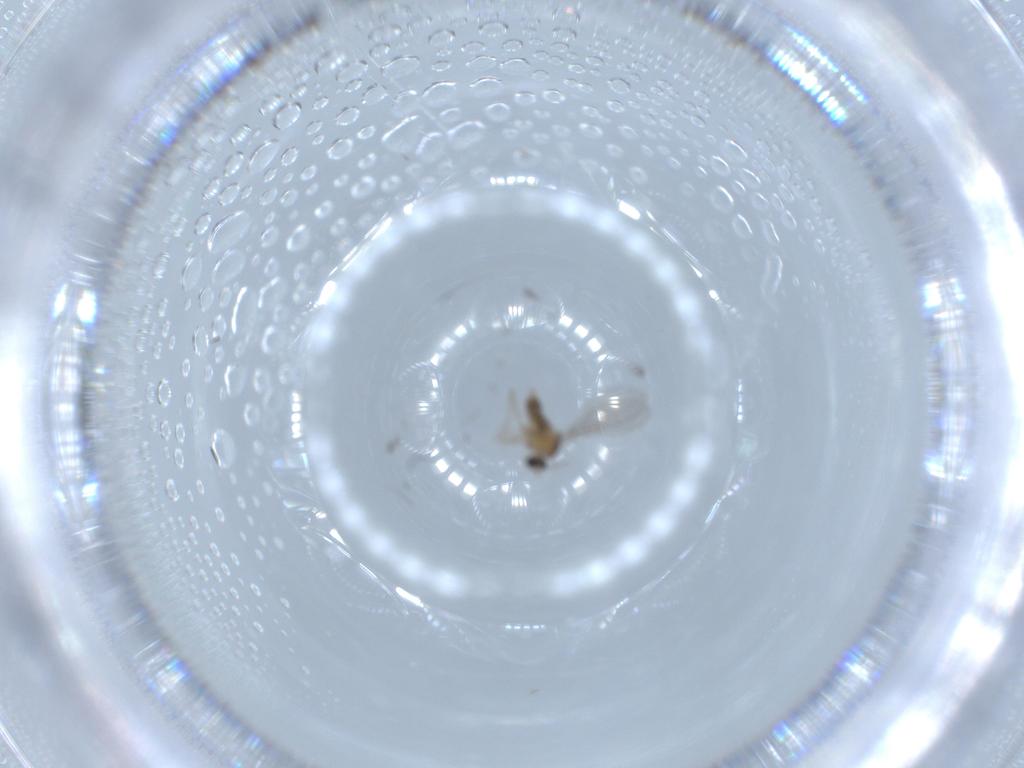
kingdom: Animalia
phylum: Arthropoda
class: Insecta
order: Diptera
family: Cecidomyiidae
